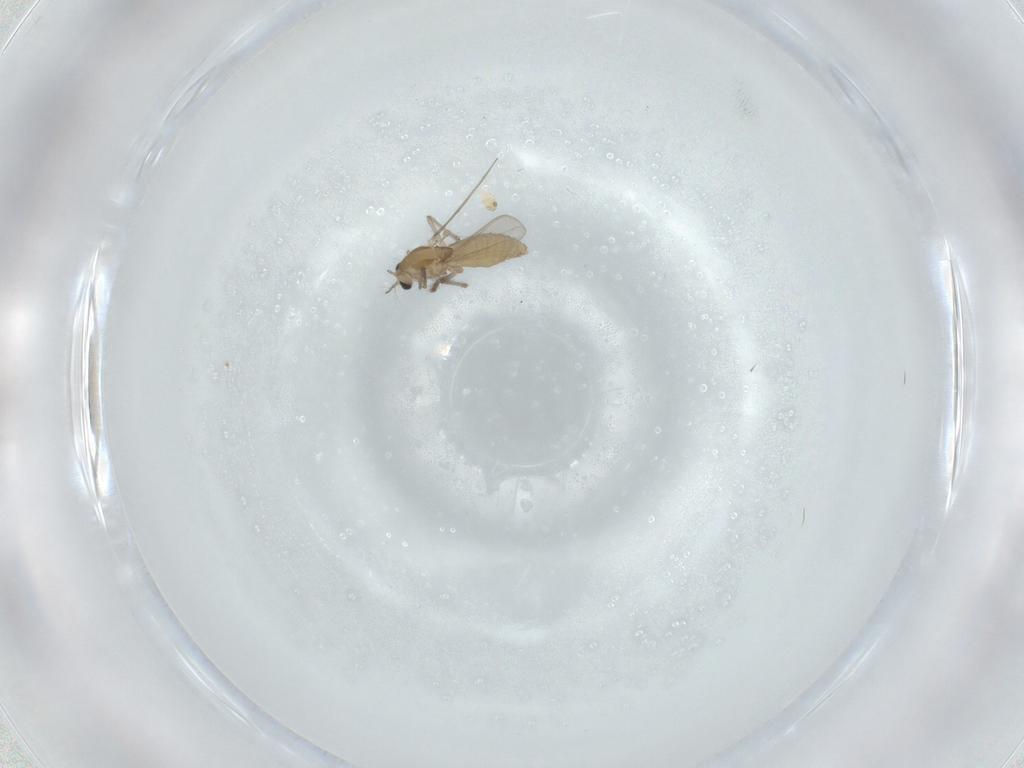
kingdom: Animalia
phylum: Arthropoda
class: Insecta
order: Diptera
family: Chironomidae
